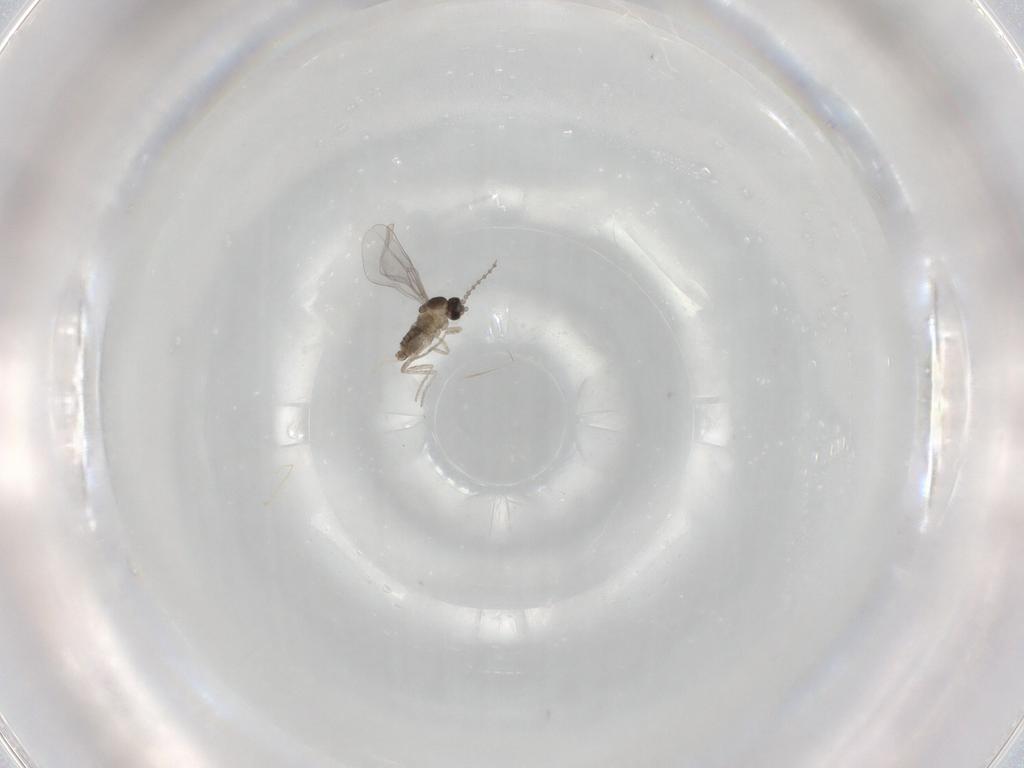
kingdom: Animalia
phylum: Arthropoda
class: Insecta
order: Diptera
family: Cecidomyiidae
